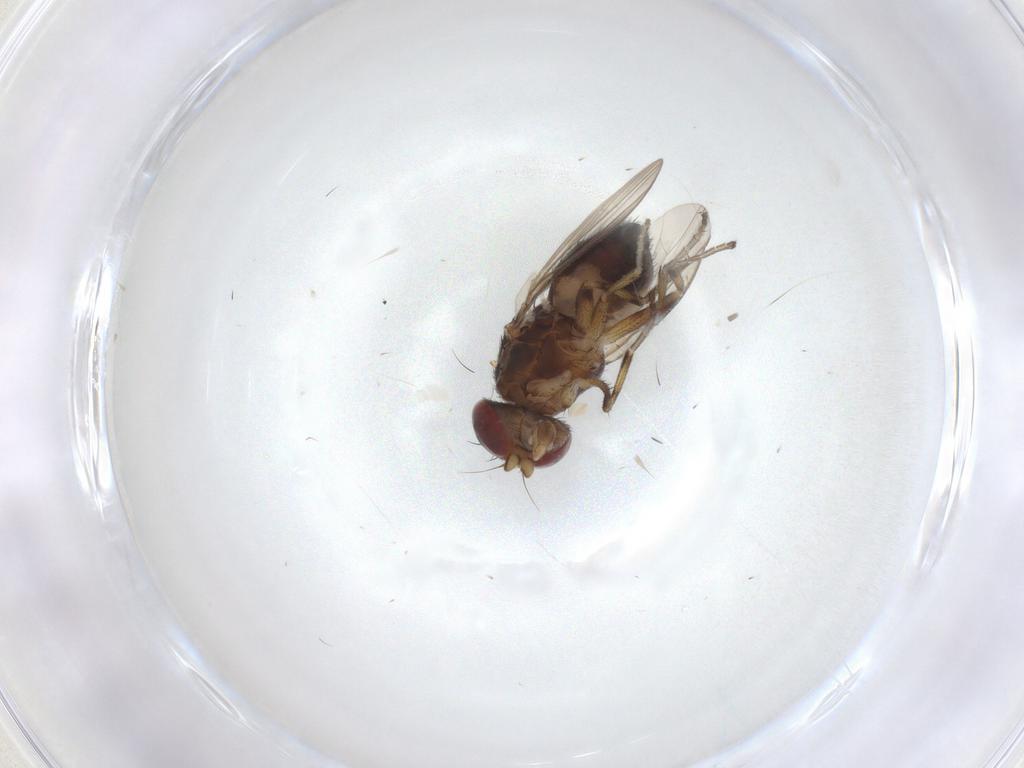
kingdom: Animalia
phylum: Arthropoda
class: Insecta
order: Diptera
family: Heleomyzidae
